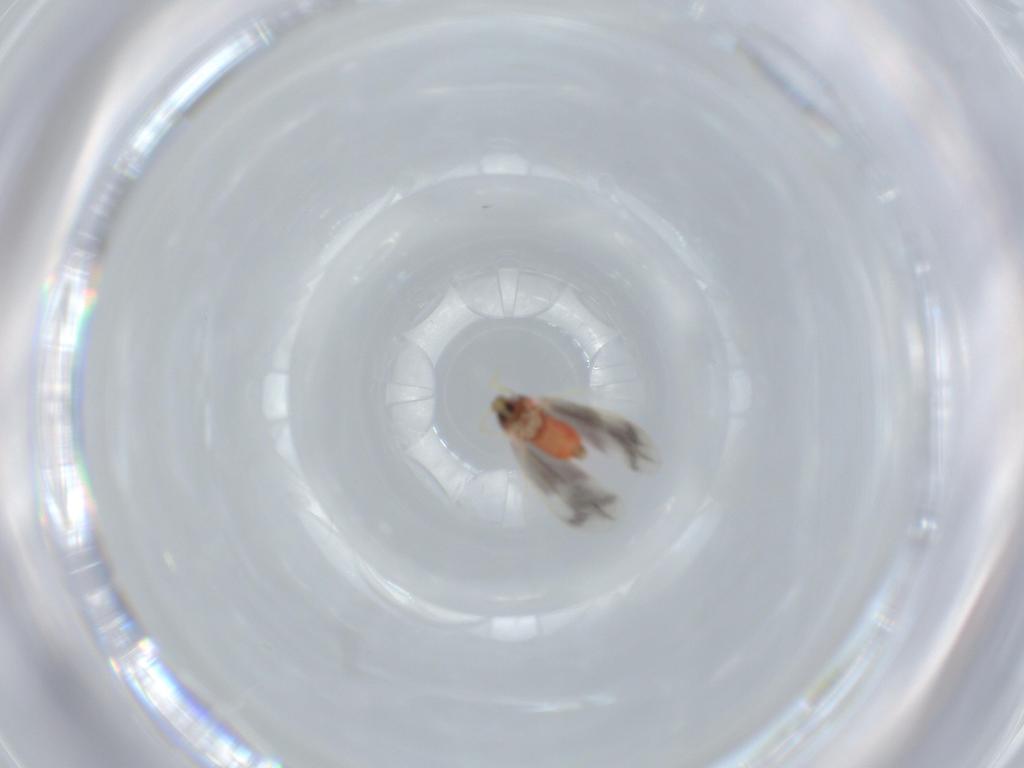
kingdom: Animalia
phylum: Arthropoda
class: Insecta
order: Hemiptera
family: Aleyrodidae
